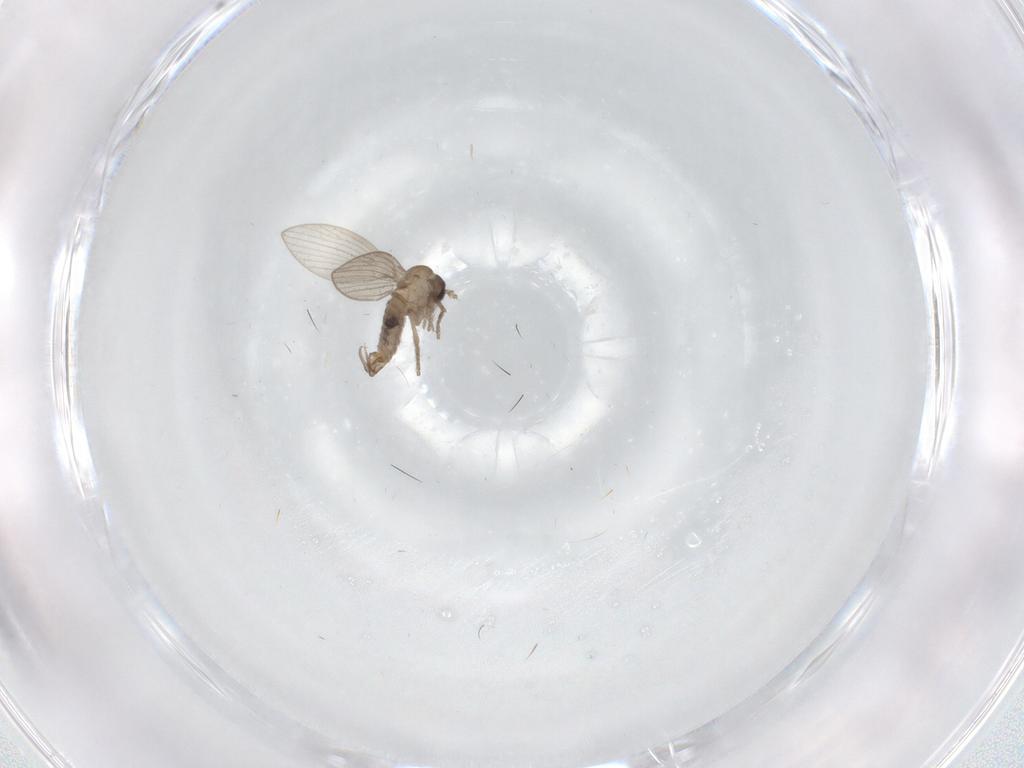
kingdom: Animalia
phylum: Arthropoda
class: Insecta
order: Diptera
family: Psychodidae
